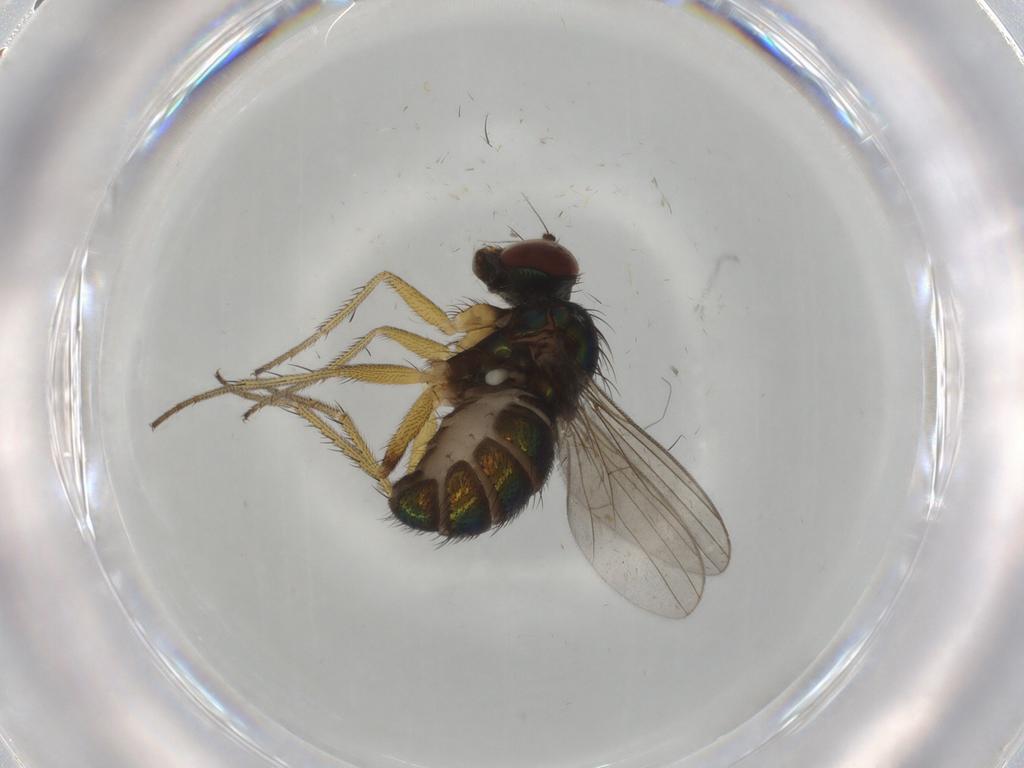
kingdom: Animalia
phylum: Arthropoda
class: Insecta
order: Diptera
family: Dolichopodidae
